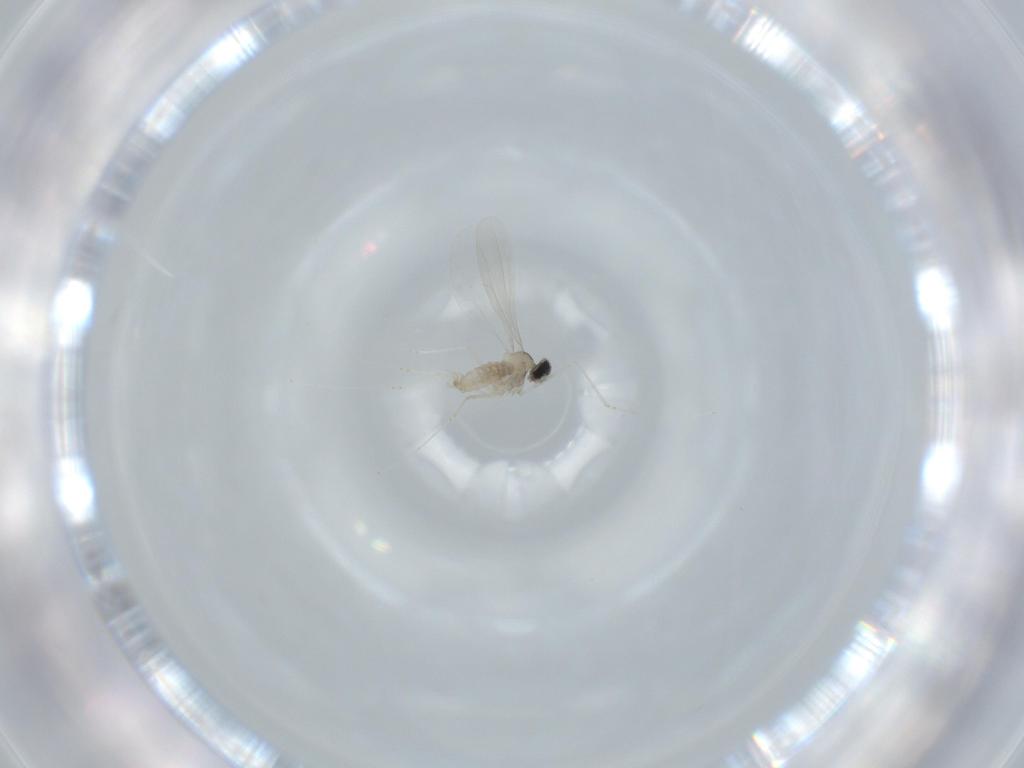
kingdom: Animalia
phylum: Arthropoda
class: Insecta
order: Diptera
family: Cecidomyiidae
